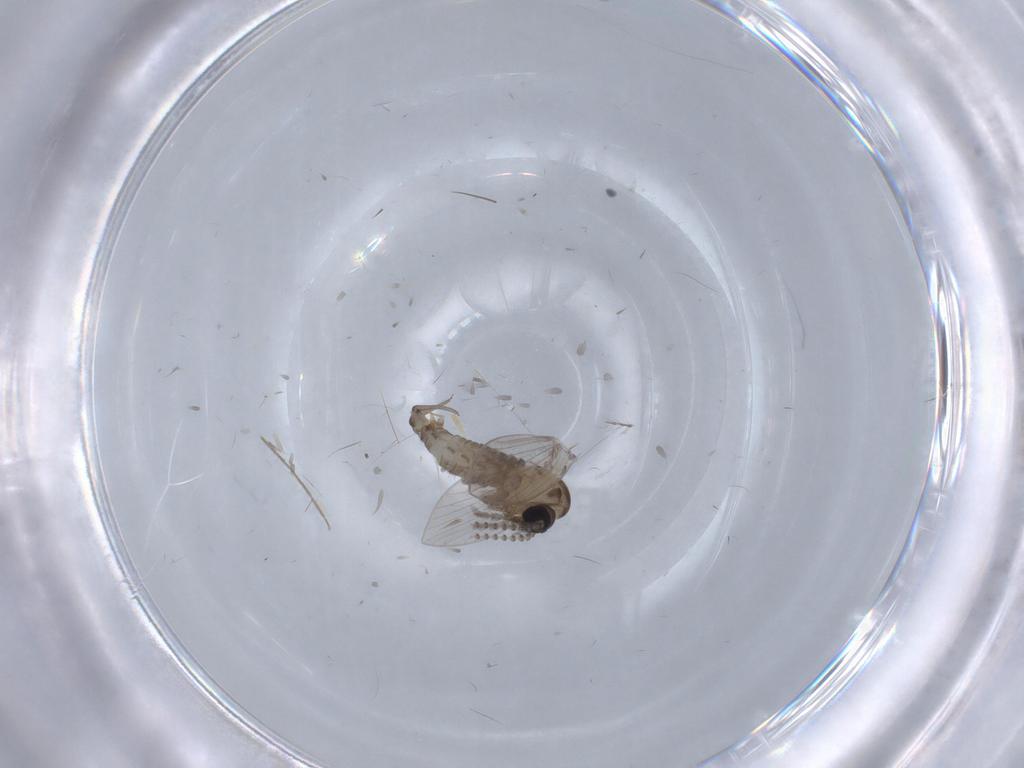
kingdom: Animalia
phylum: Arthropoda
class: Insecta
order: Diptera
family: Psychodidae
